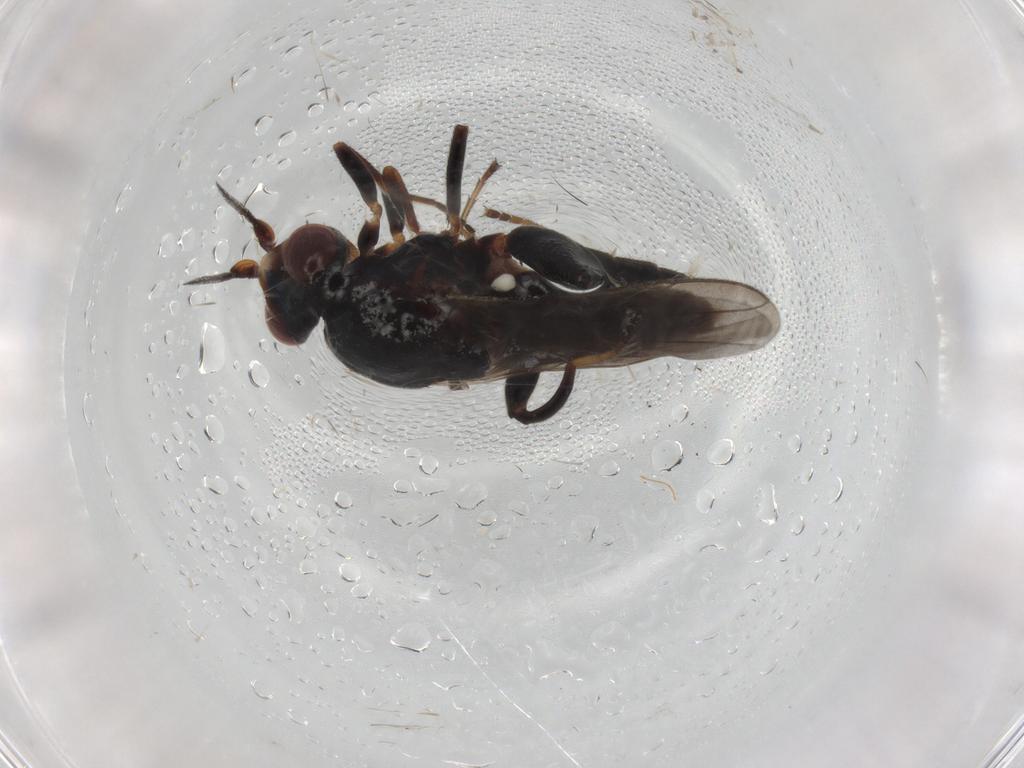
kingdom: Animalia
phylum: Arthropoda
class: Insecta
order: Diptera
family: Chloropidae
